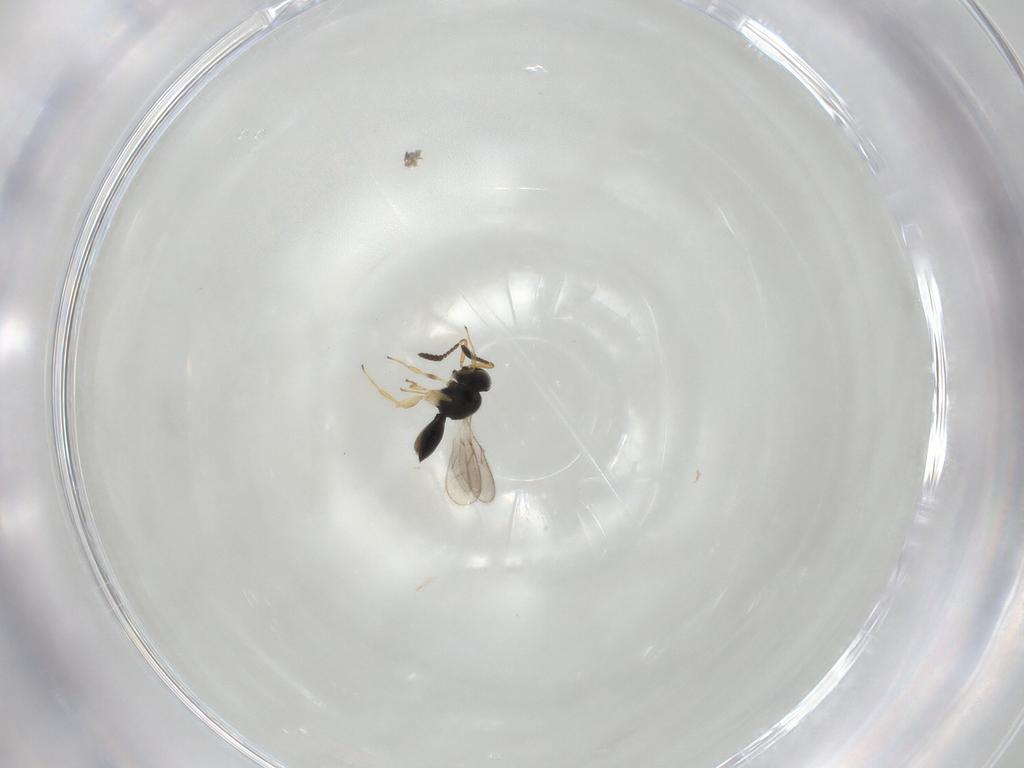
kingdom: Animalia
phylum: Arthropoda
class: Insecta
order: Hymenoptera
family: Scelionidae
